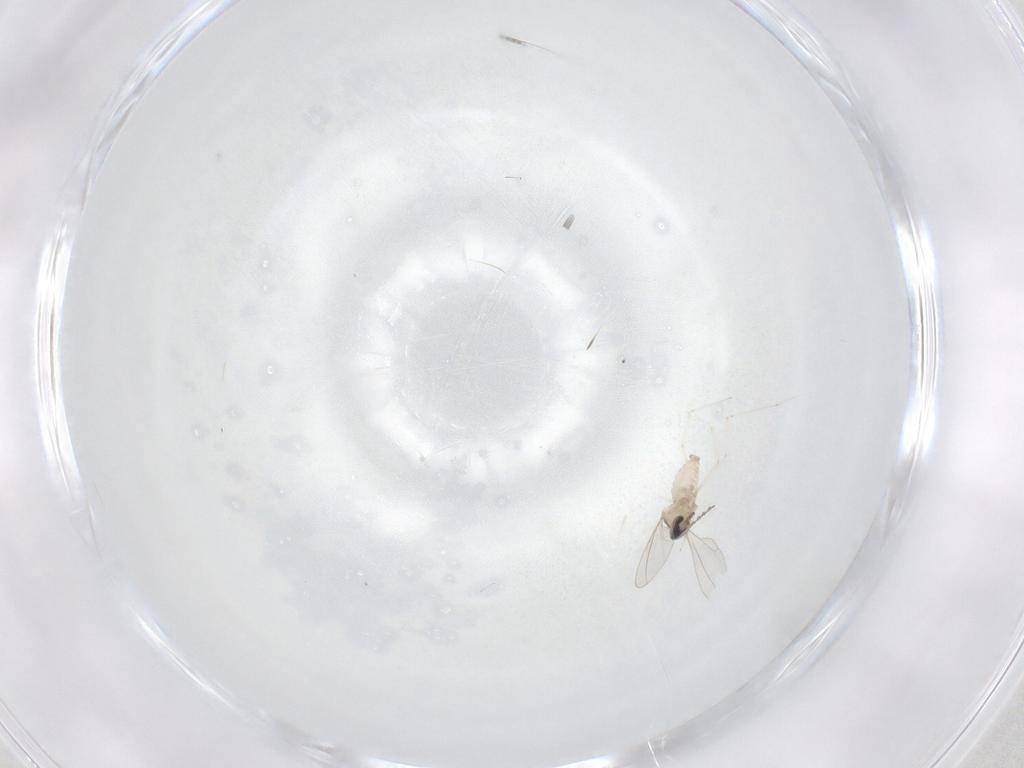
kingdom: Animalia
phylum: Arthropoda
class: Insecta
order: Diptera
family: Cecidomyiidae
